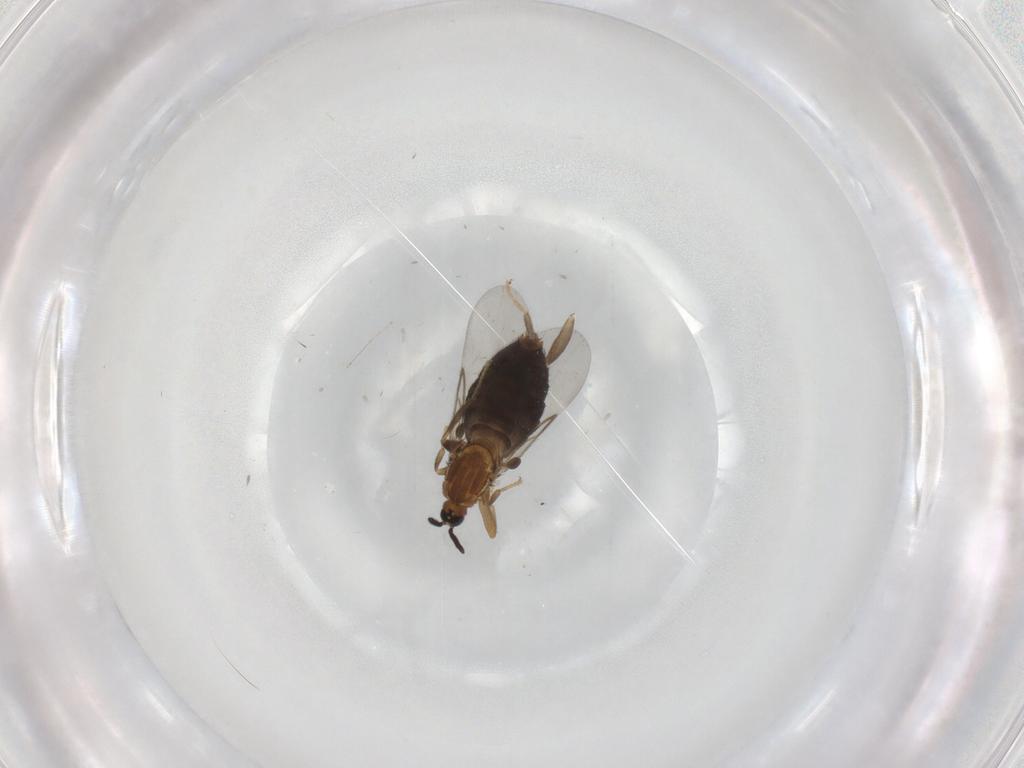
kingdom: Animalia
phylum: Arthropoda
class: Insecta
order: Diptera
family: Scatopsidae
